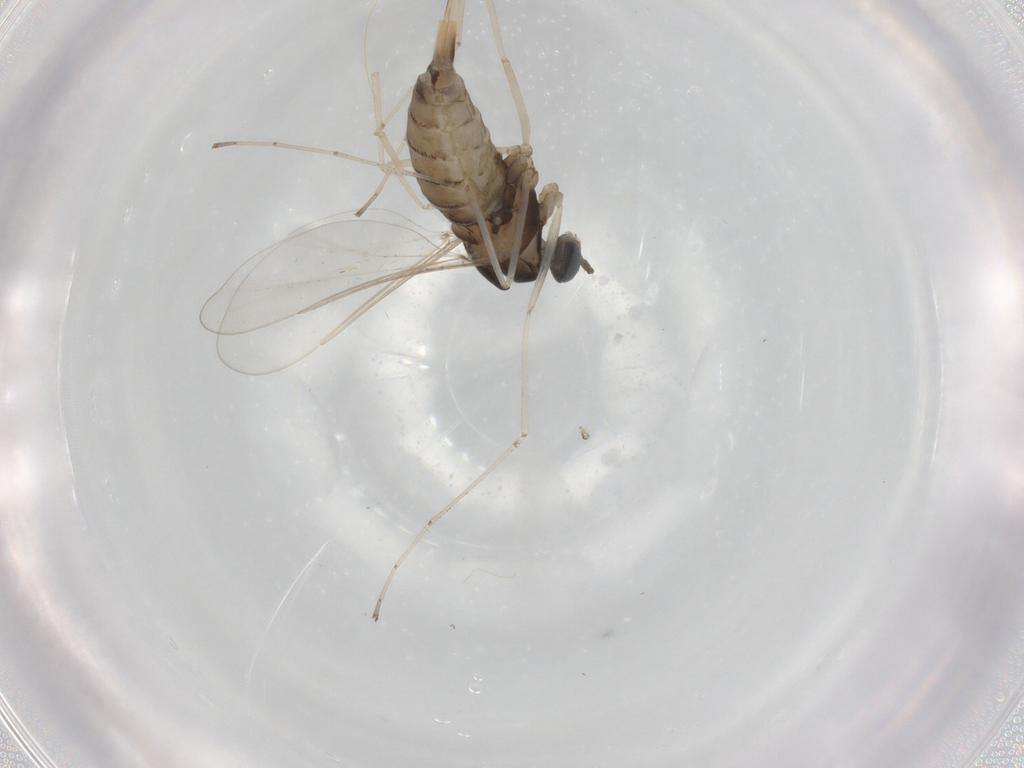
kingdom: Animalia
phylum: Arthropoda
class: Insecta
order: Diptera
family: Cecidomyiidae
